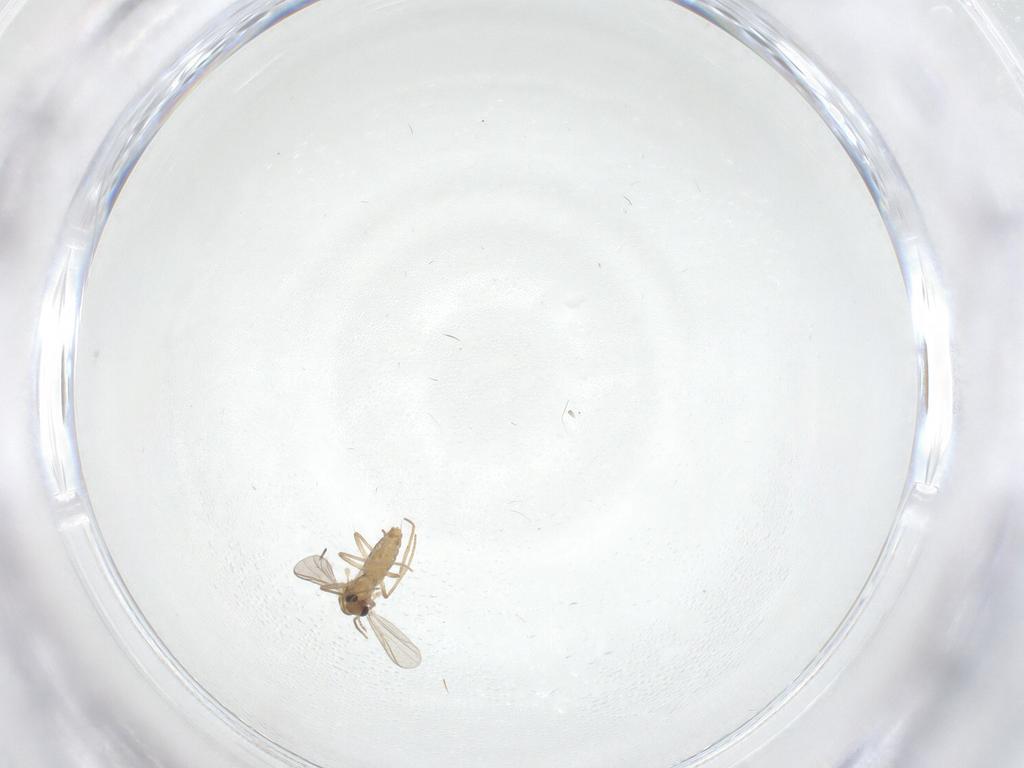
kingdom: Animalia
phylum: Arthropoda
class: Insecta
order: Diptera
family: Chironomidae
